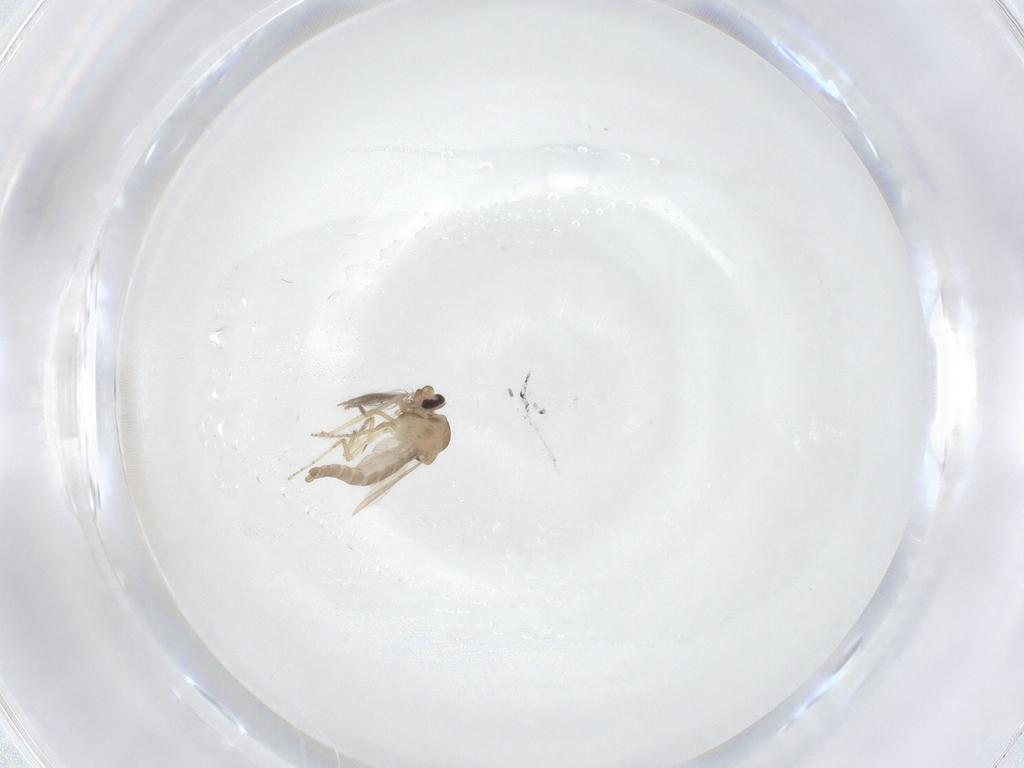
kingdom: Animalia
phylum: Arthropoda
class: Insecta
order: Diptera
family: Ceratopogonidae
